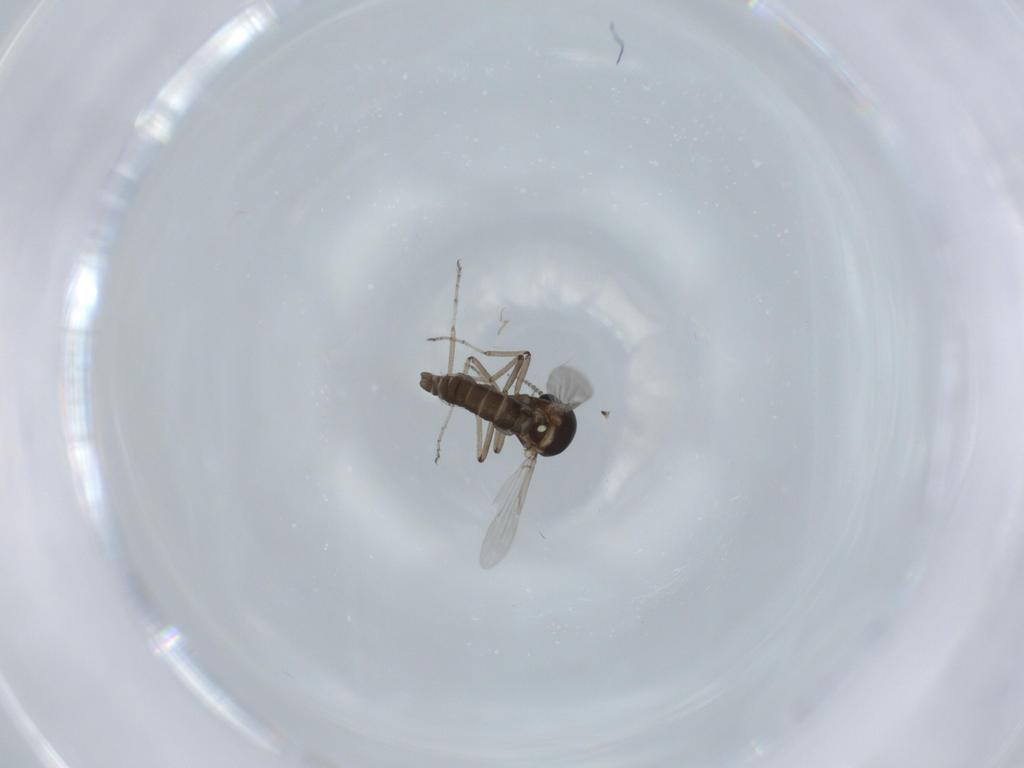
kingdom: Animalia
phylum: Arthropoda
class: Insecta
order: Diptera
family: Ceratopogonidae
